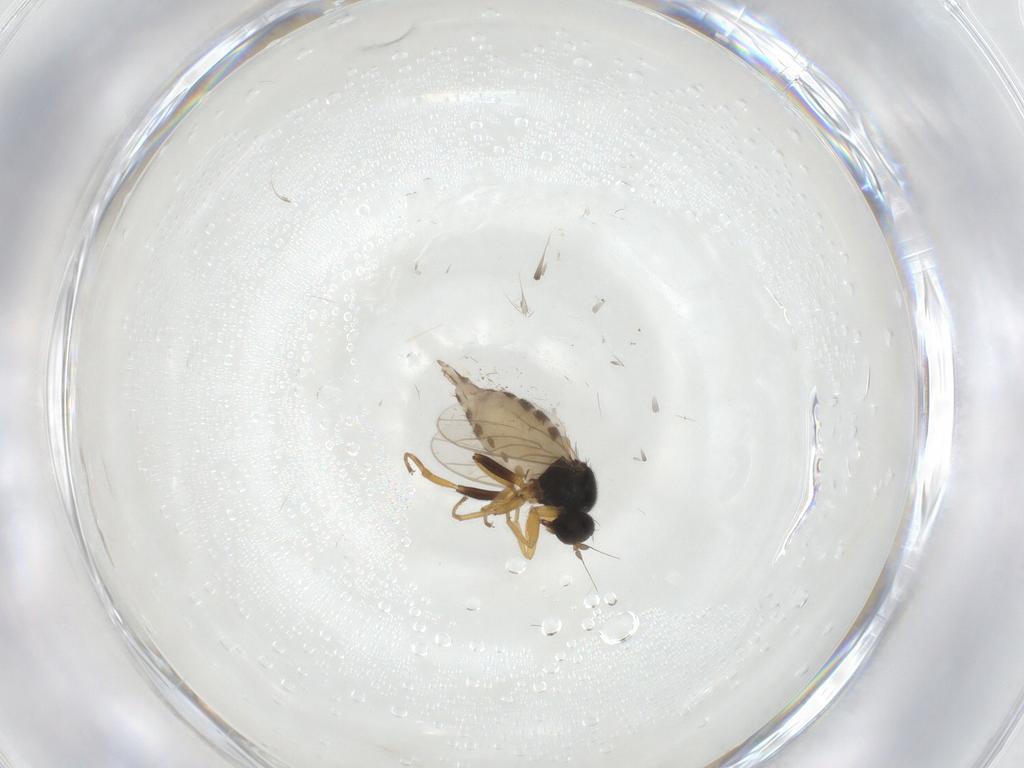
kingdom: Animalia
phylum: Arthropoda
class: Insecta
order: Diptera
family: Hybotidae
